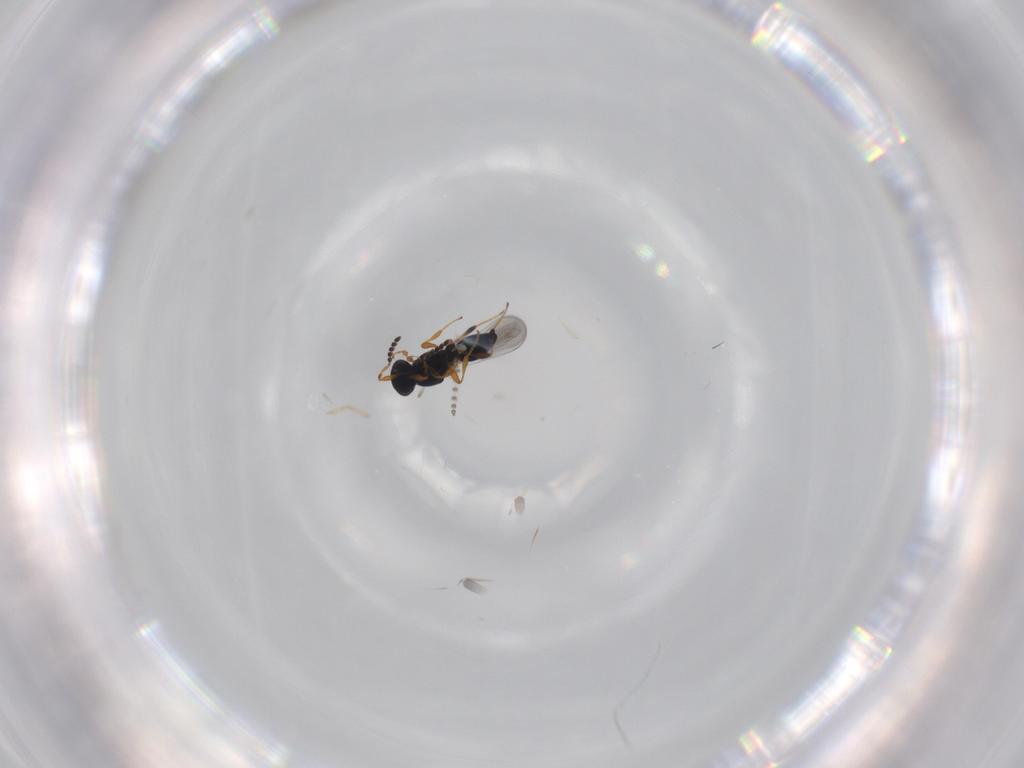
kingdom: Animalia
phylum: Arthropoda
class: Insecta
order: Hymenoptera
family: Platygastridae
